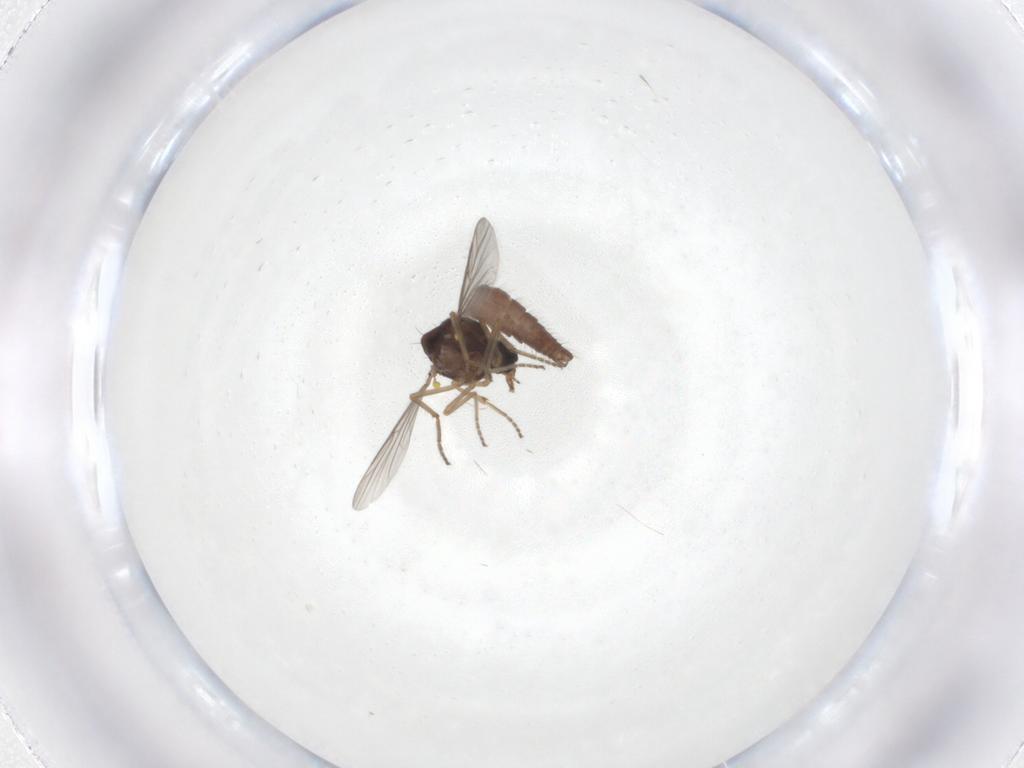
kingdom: Animalia
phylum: Arthropoda
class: Insecta
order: Diptera
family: Ceratopogonidae
